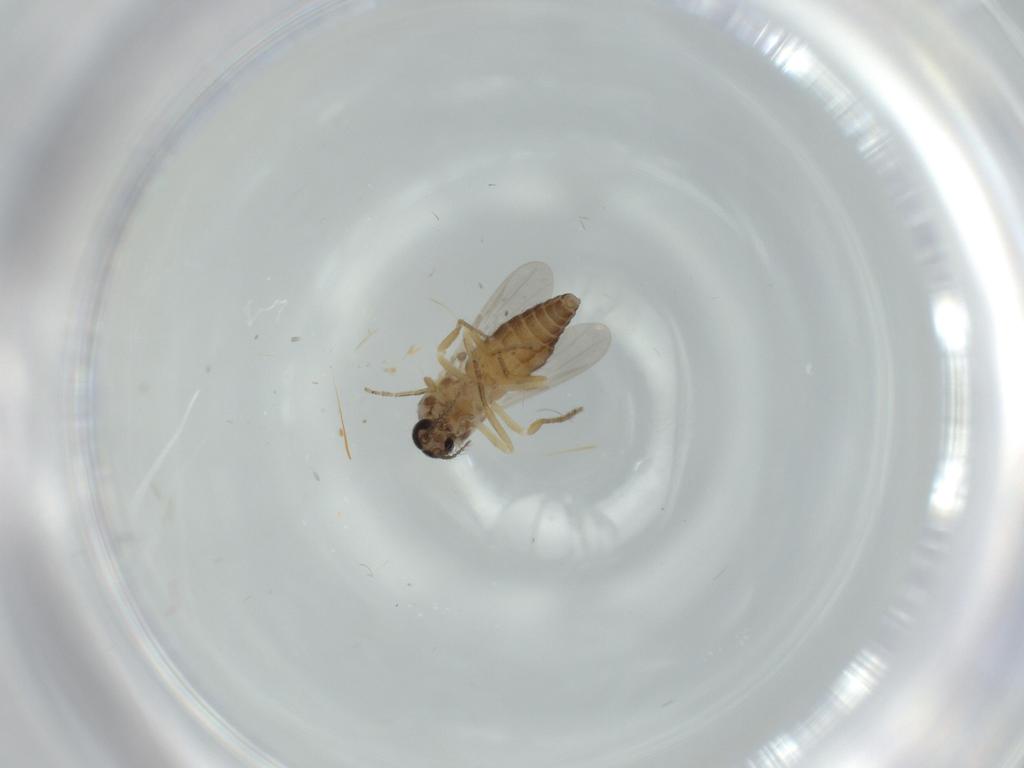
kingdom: Animalia
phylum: Arthropoda
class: Insecta
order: Diptera
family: Ceratopogonidae
